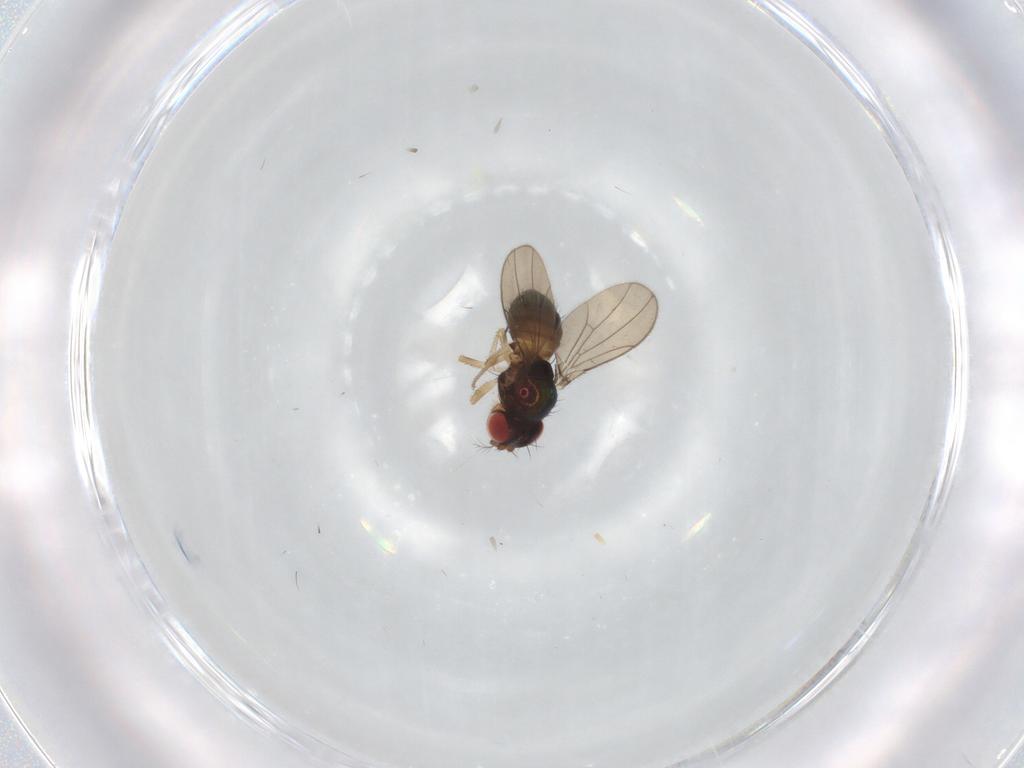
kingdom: Animalia
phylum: Arthropoda
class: Insecta
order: Diptera
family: Drosophilidae
